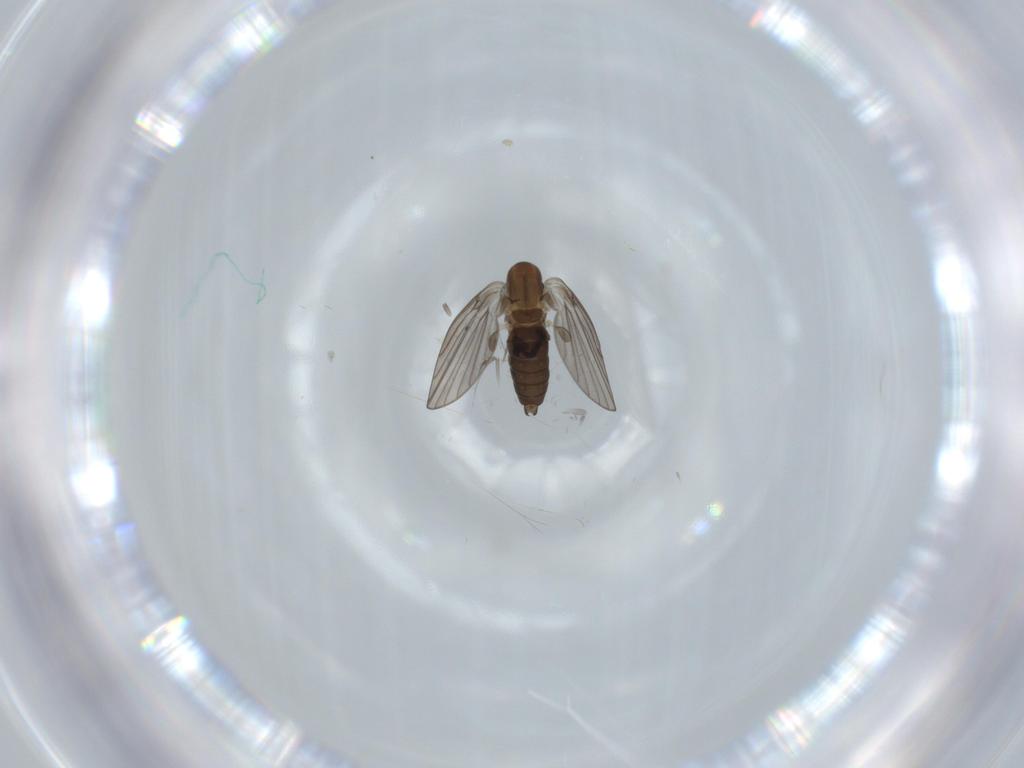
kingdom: Animalia
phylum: Arthropoda
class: Insecta
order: Diptera
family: Psychodidae
